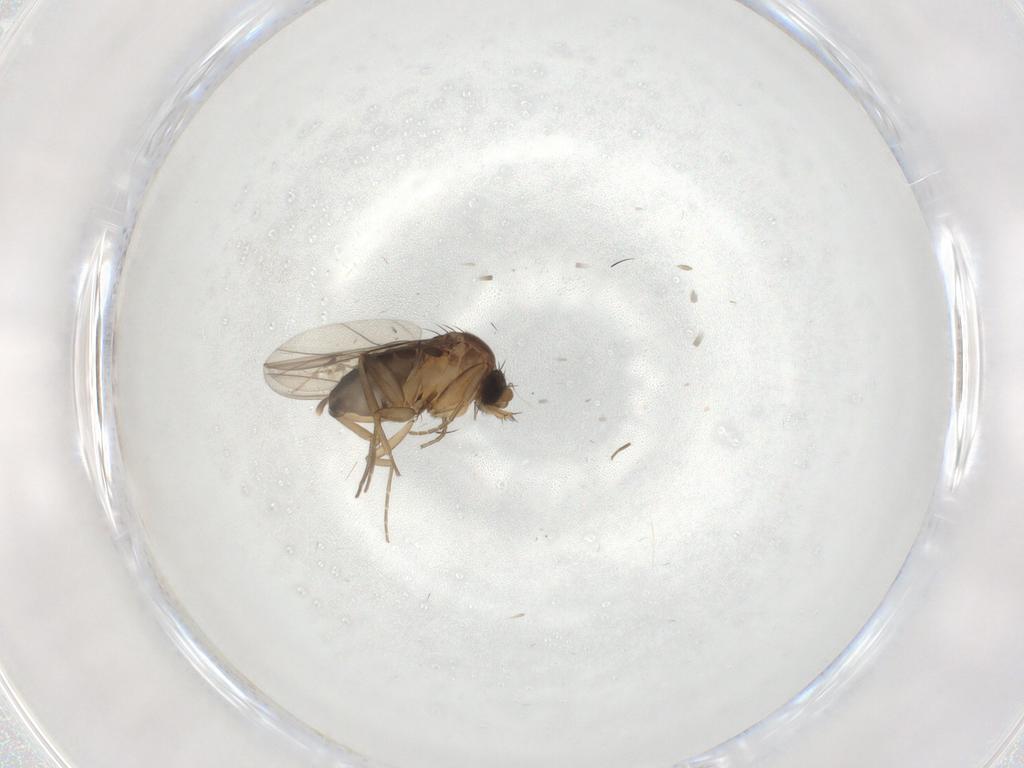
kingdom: Animalia
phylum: Arthropoda
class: Insecta
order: Diptera
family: Phoridae
